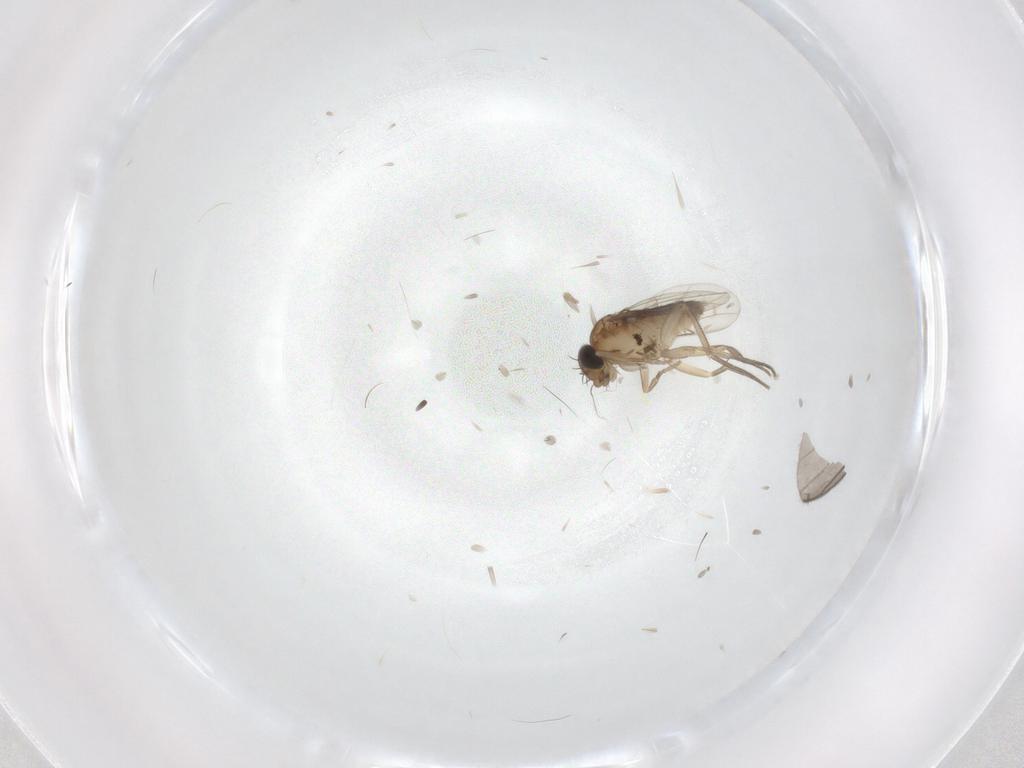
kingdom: Animalia
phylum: Arthropoda
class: Insecta
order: Diptera
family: Phoridae
